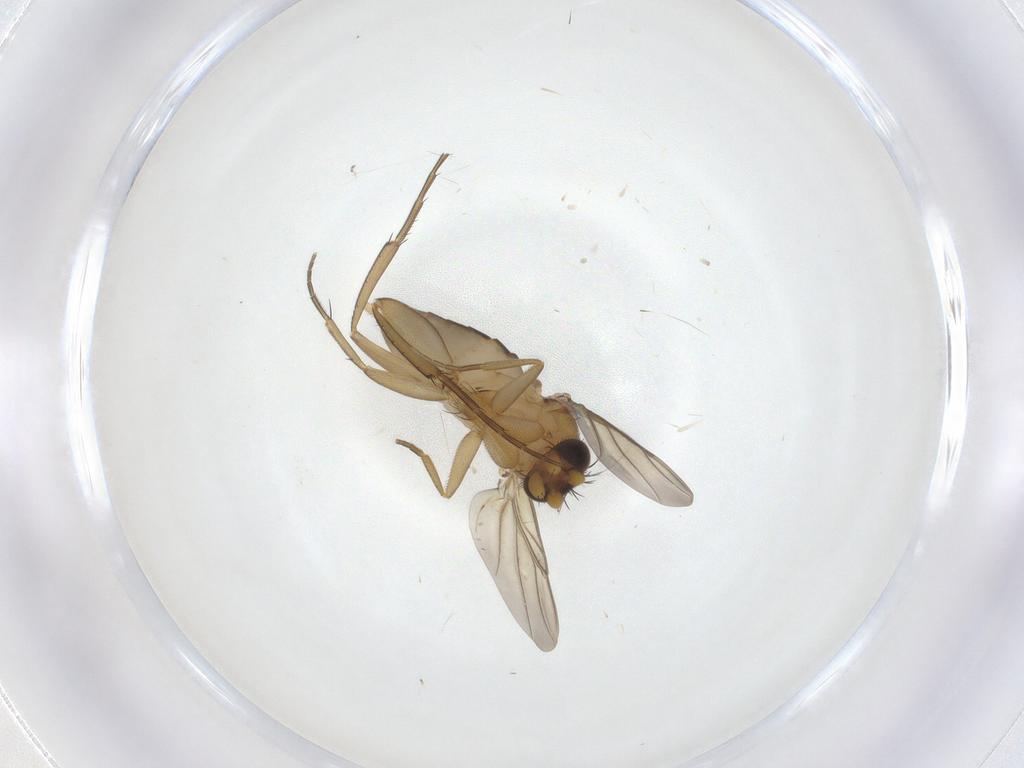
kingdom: Animalia
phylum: Arthropoda
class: Insecta
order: Diptera
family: Phoridae
